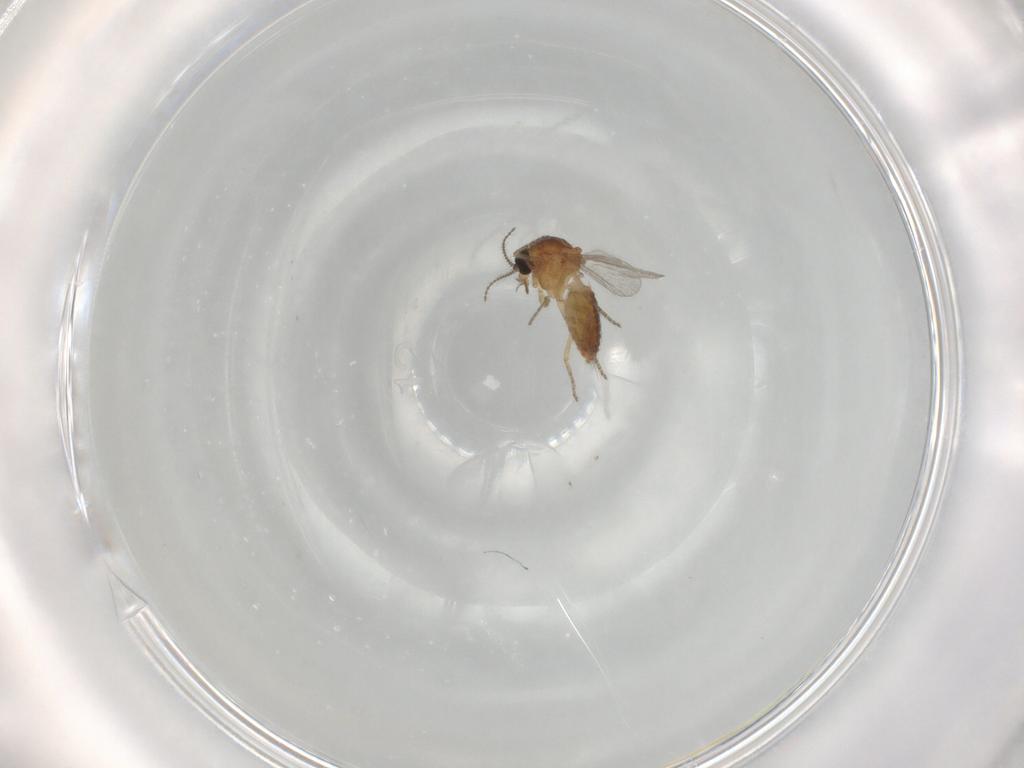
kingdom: Animalia
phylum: Arthropoda
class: Insecta
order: Diptera
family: Ceratopogonidae
